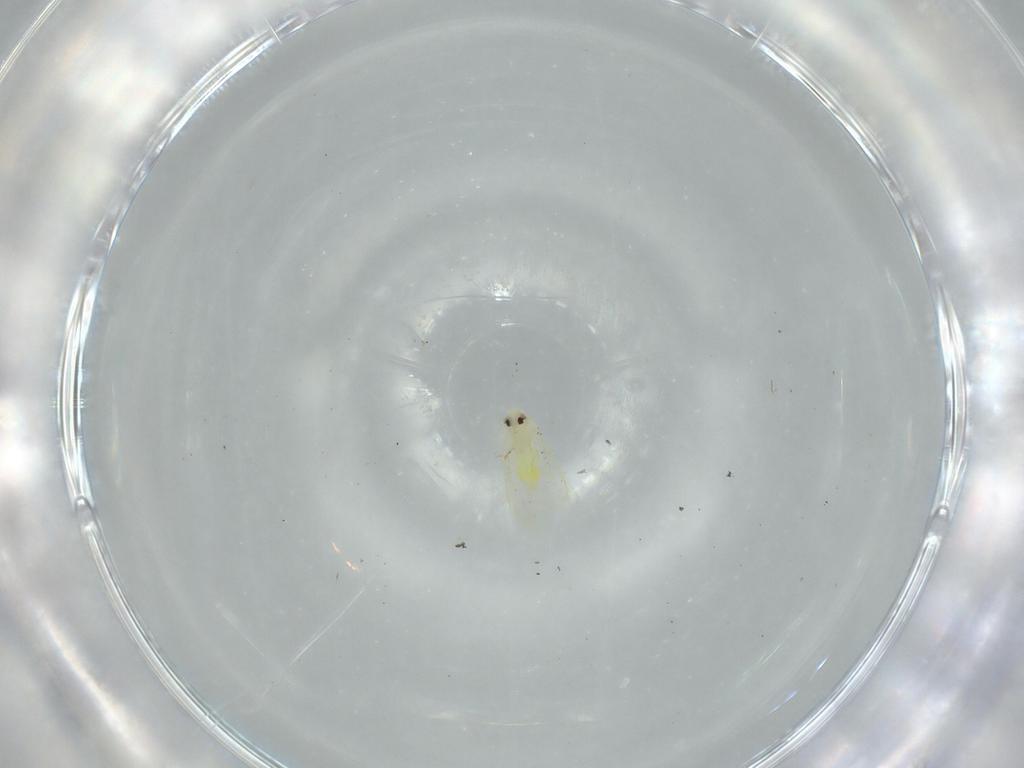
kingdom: Animalia
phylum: Arthropoda
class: Insecta
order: Hemiptera
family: Aleyrodidae
